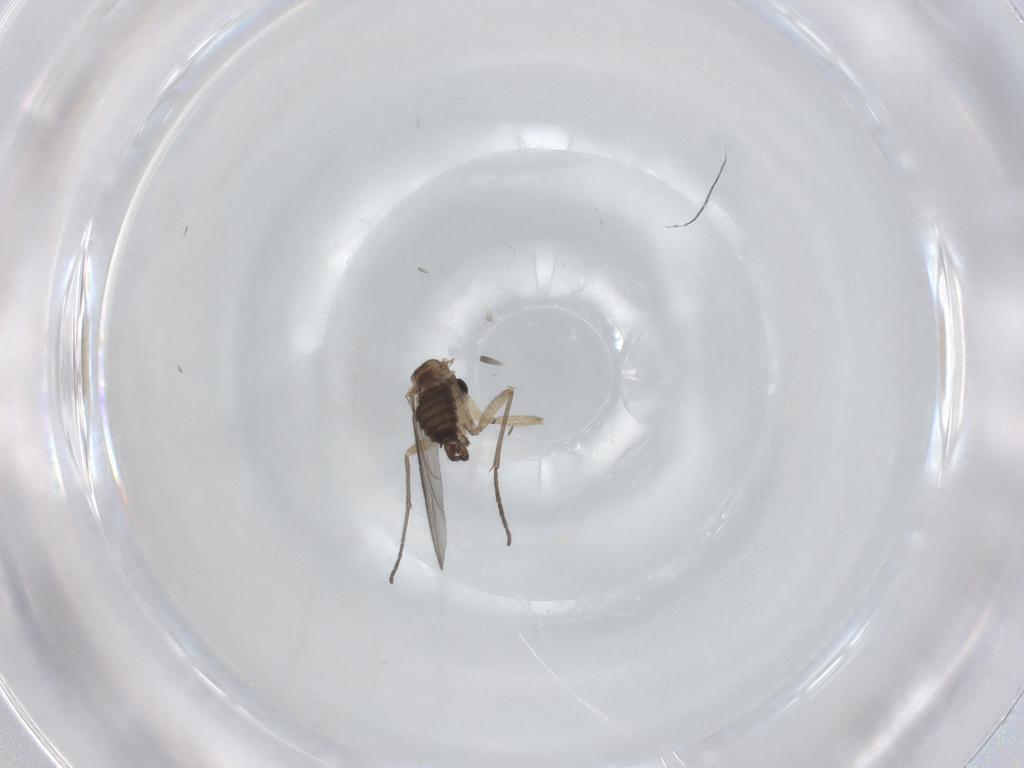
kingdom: Animalia
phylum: Arthropoda
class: Insecta
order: Diptera
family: Sciaridae
